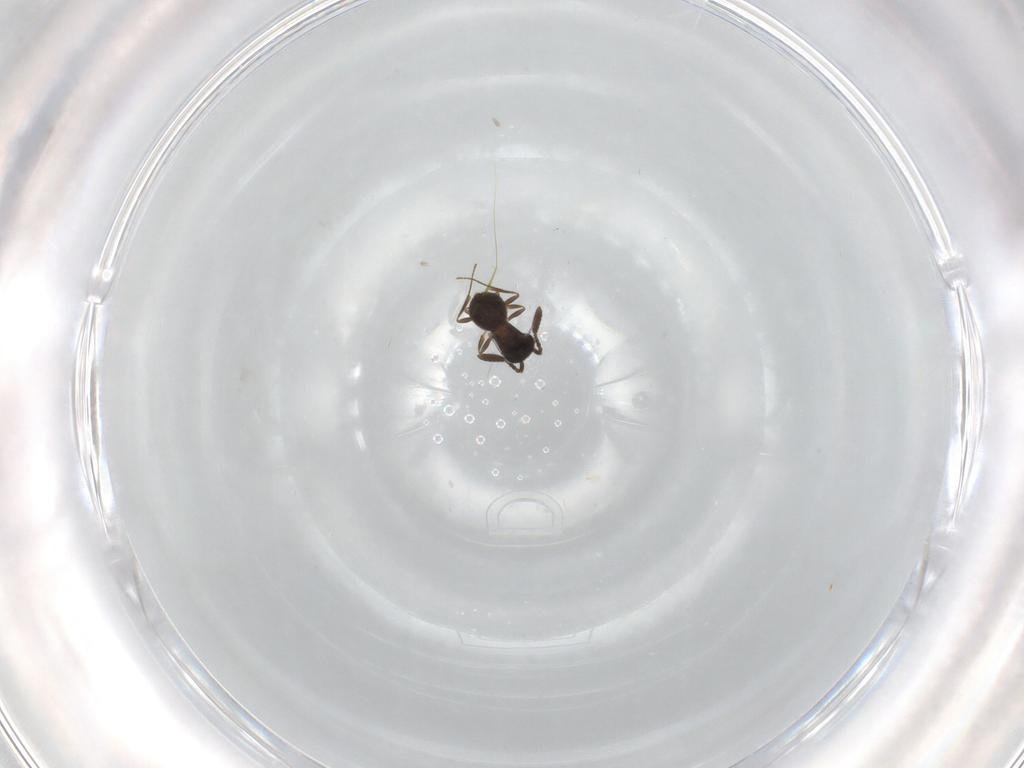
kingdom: Animalia
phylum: Arthropoda
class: Insecta
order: Hymenoptera
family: Scelionidae
